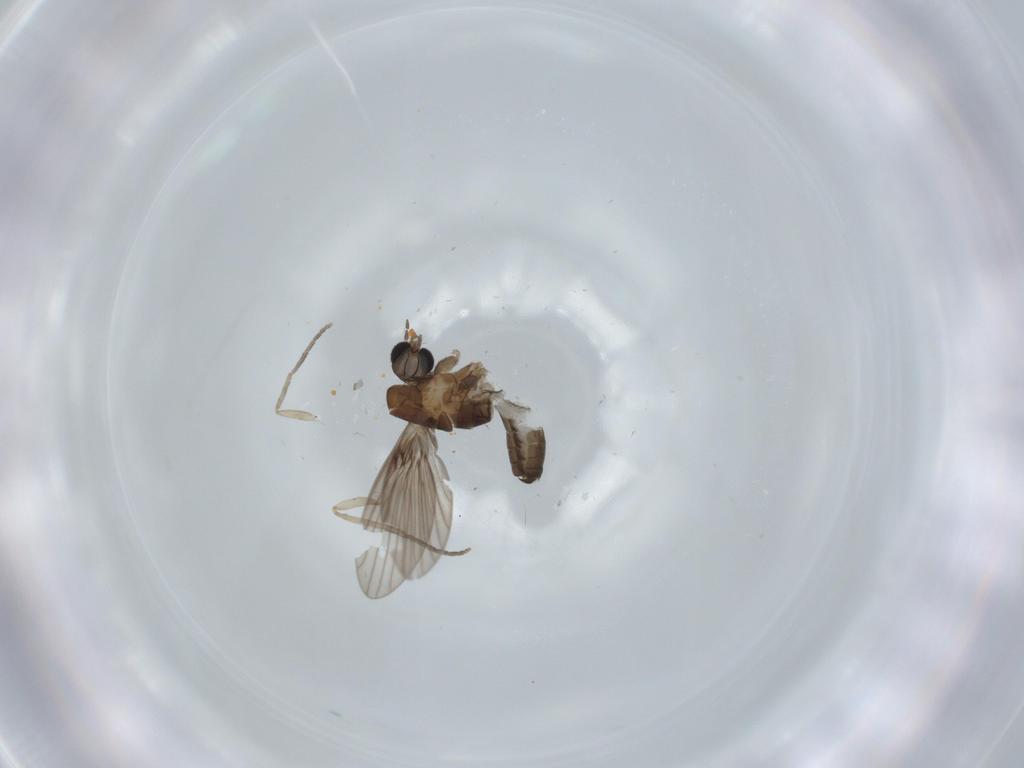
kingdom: Animalia
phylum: Arthropoda
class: Insecta
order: Diptera
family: Psychodidae
